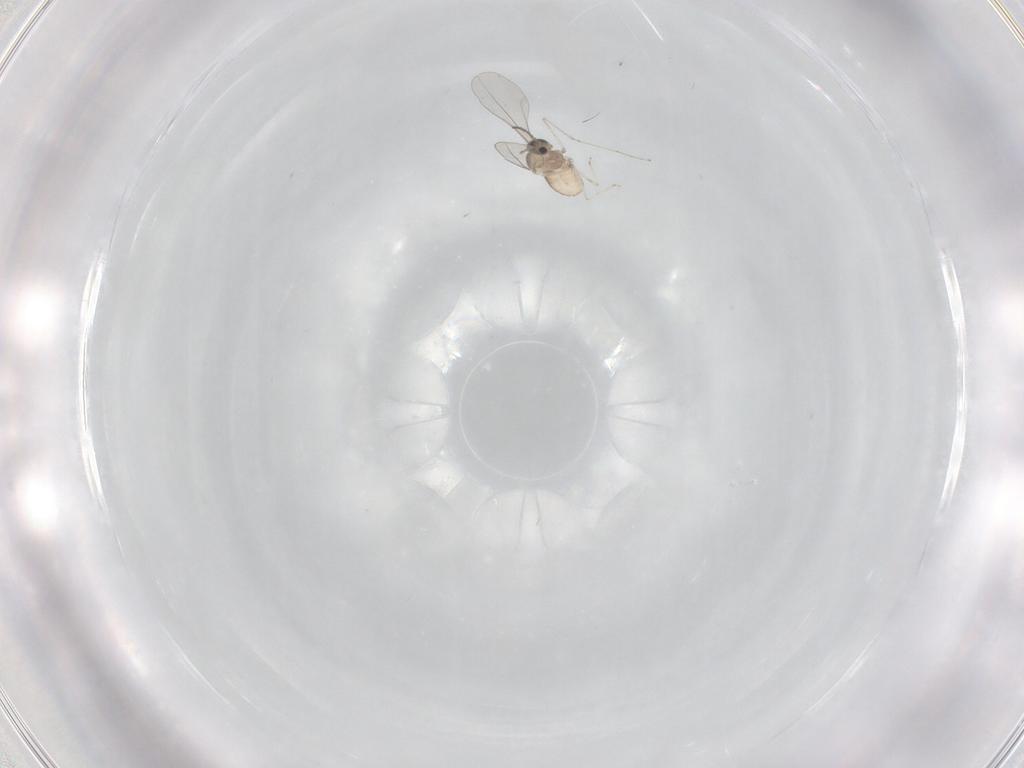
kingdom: Animalia
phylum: Arthropoda
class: Insecta
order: Diptera
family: Cecidomyiidae
